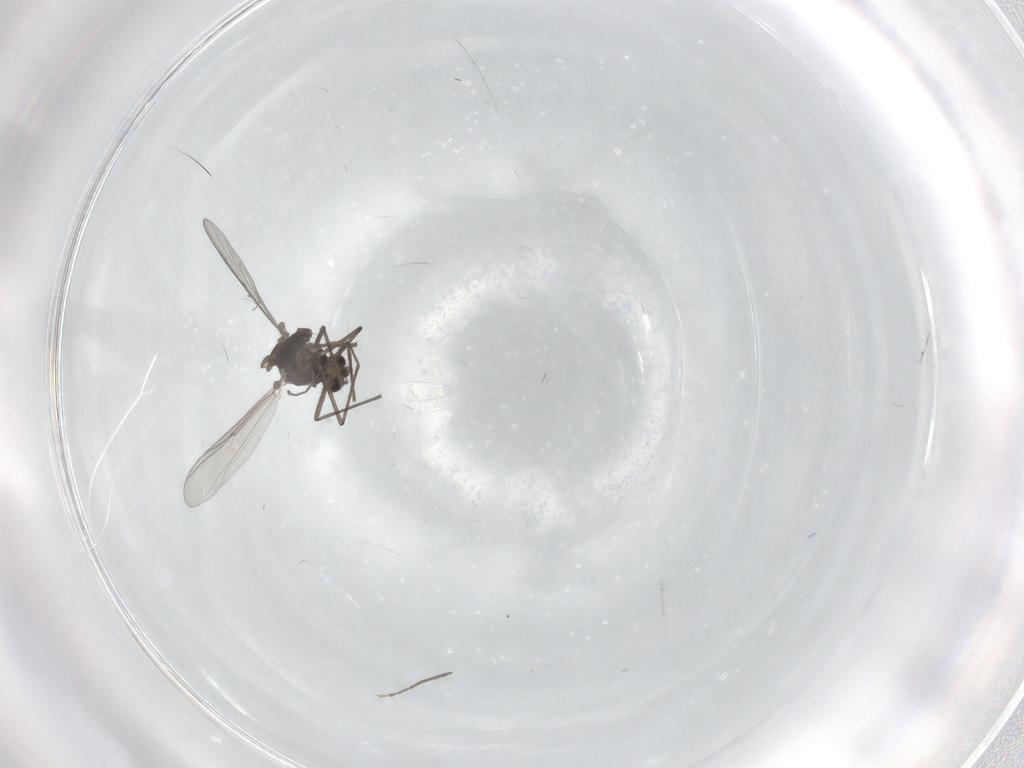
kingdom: Animalia
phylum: Arthropoda
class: Insecta
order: Diptera
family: Chironomidae
